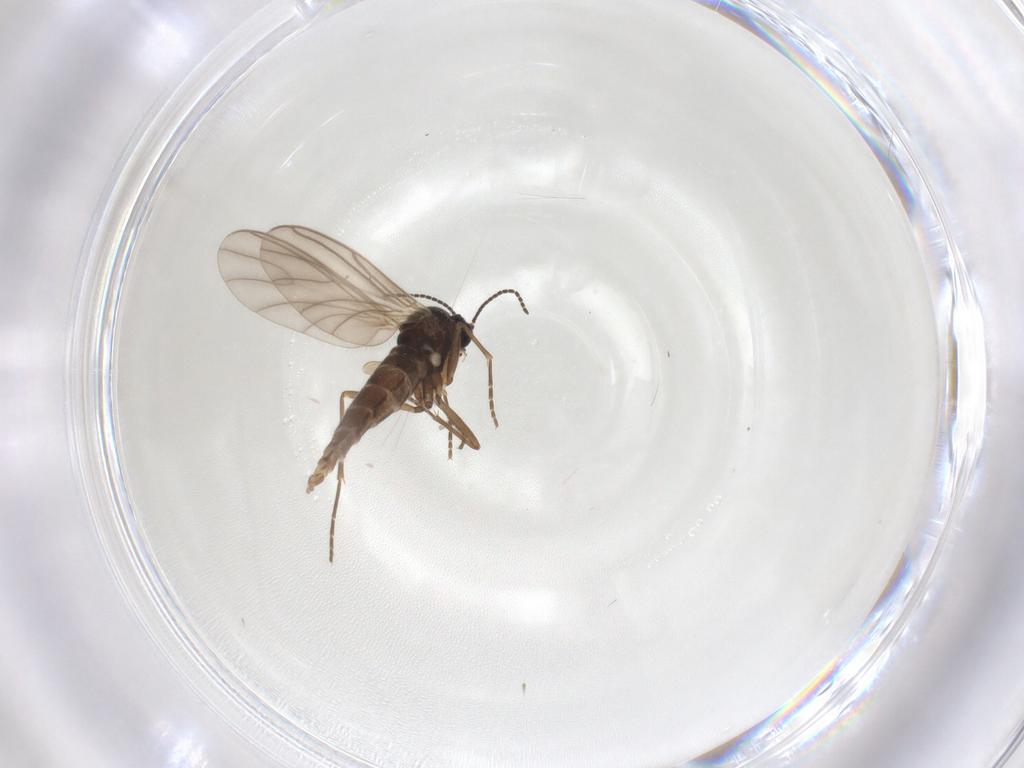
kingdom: Animalia
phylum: Arthropoda
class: Insecta
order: Diptera
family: Sciaridae
